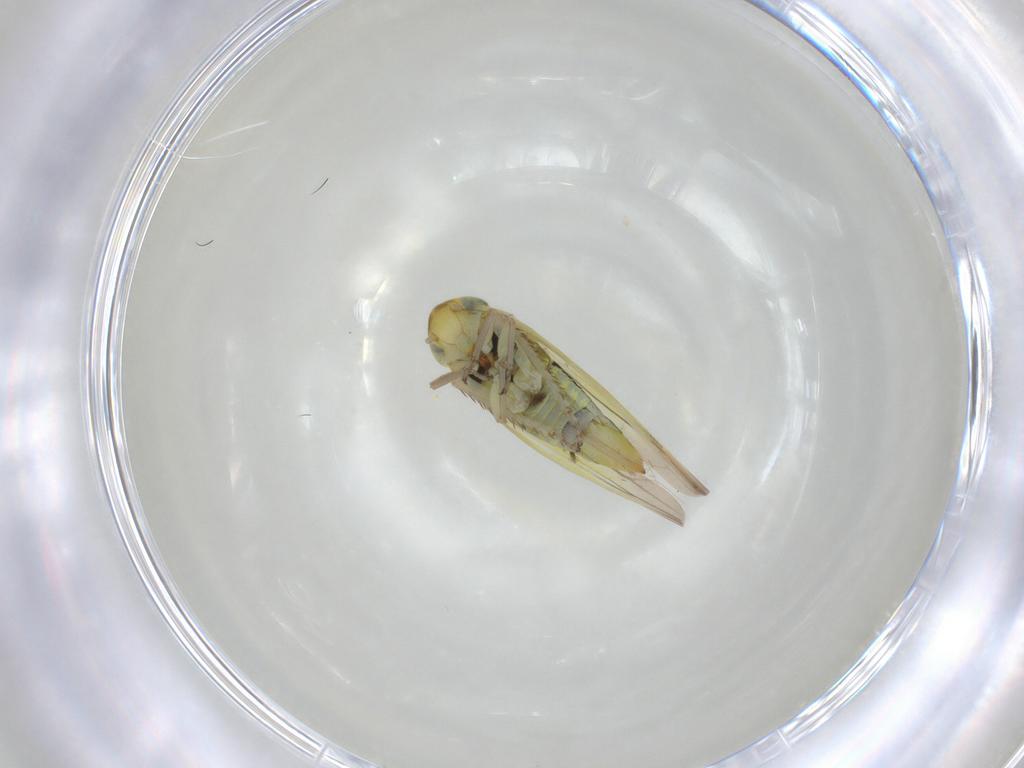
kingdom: Animalia
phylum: Arthropoda
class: Insecta
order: Hemiptera
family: Cicadellidae
